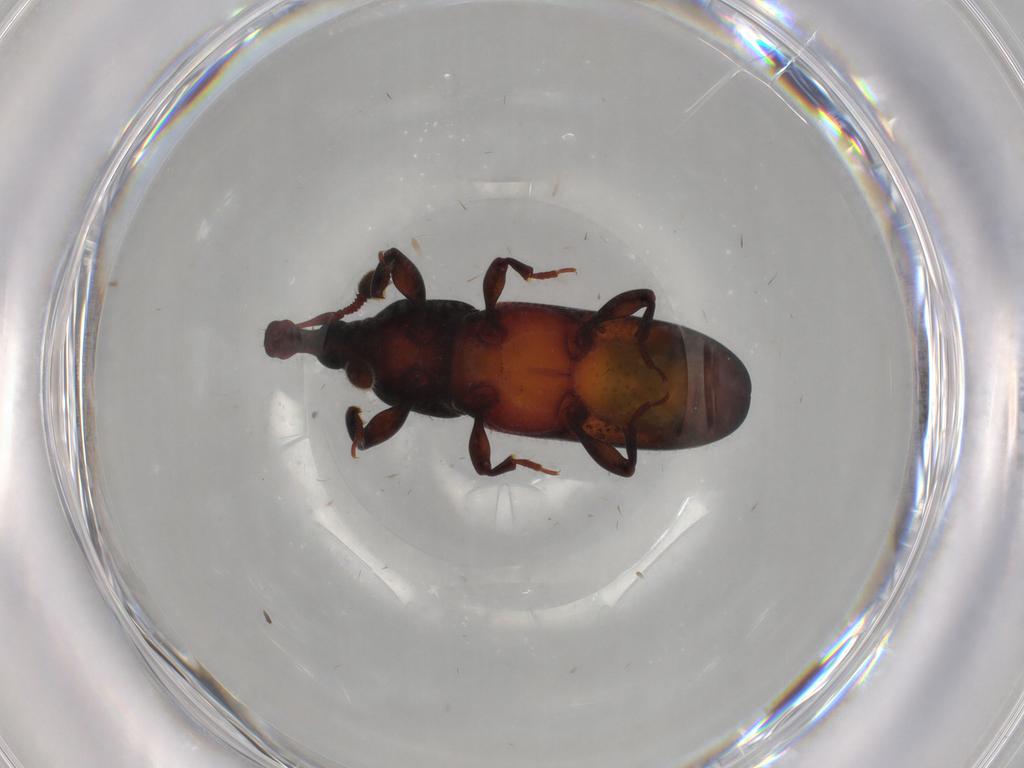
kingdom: Animalia
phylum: Arthropoda
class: Insecta
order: Coleoptera
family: Curculionidae
